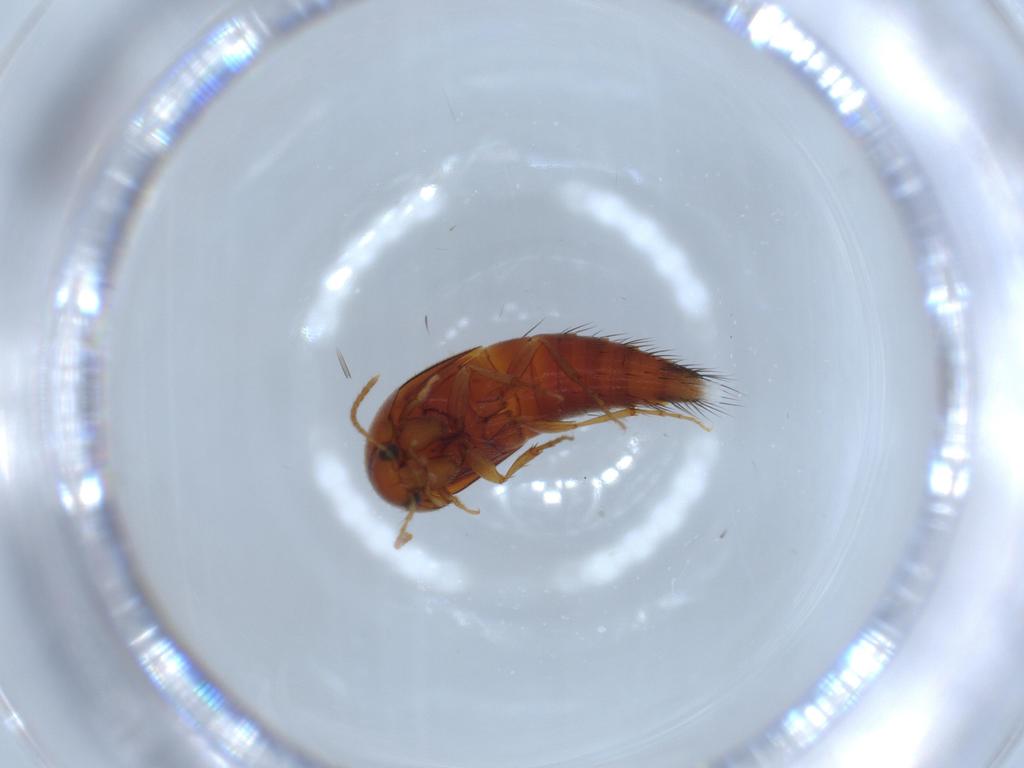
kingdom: Animalia
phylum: Arthropoda
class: Insecta
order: Coleoptera
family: Staphylinidae
